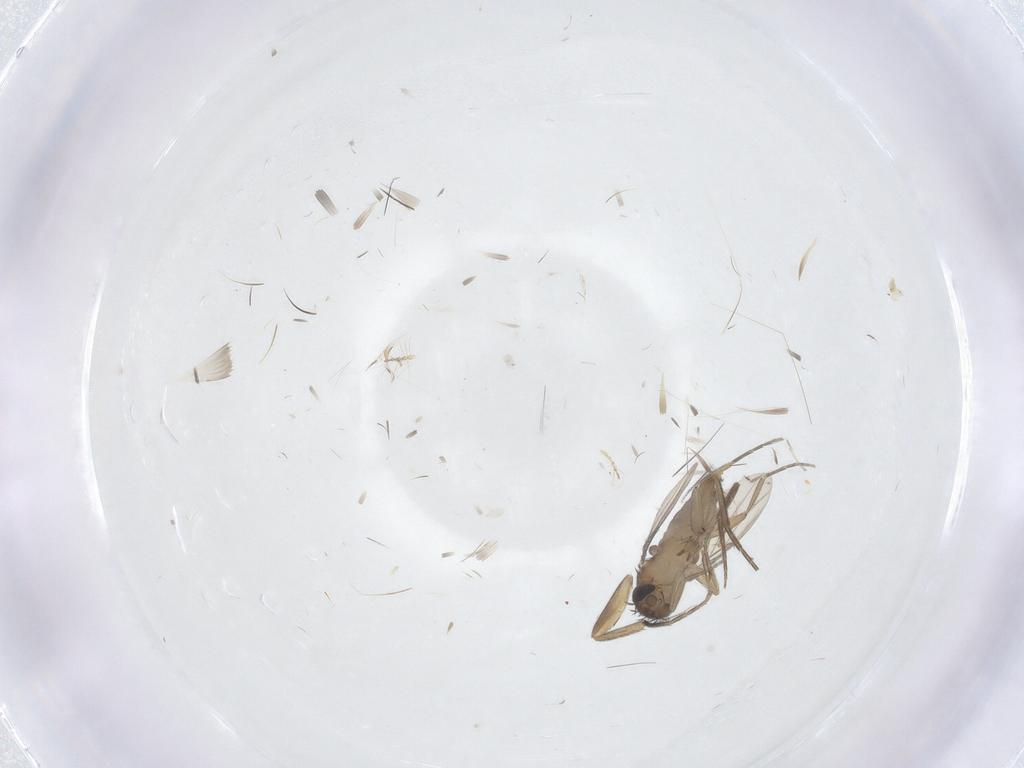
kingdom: Animalia
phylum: Arthropoda
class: Insecta
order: Diptera
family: Phoridae
